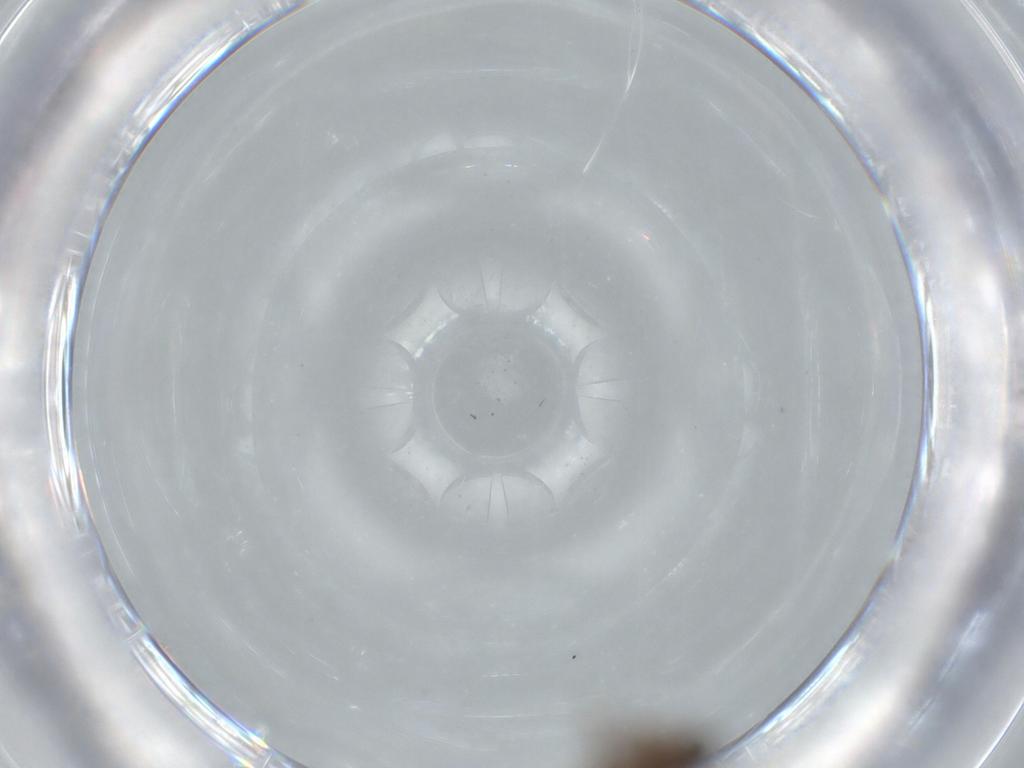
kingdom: Animalia
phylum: Arthropoda
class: Insecta
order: Diptera
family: Sphaeroceridae
